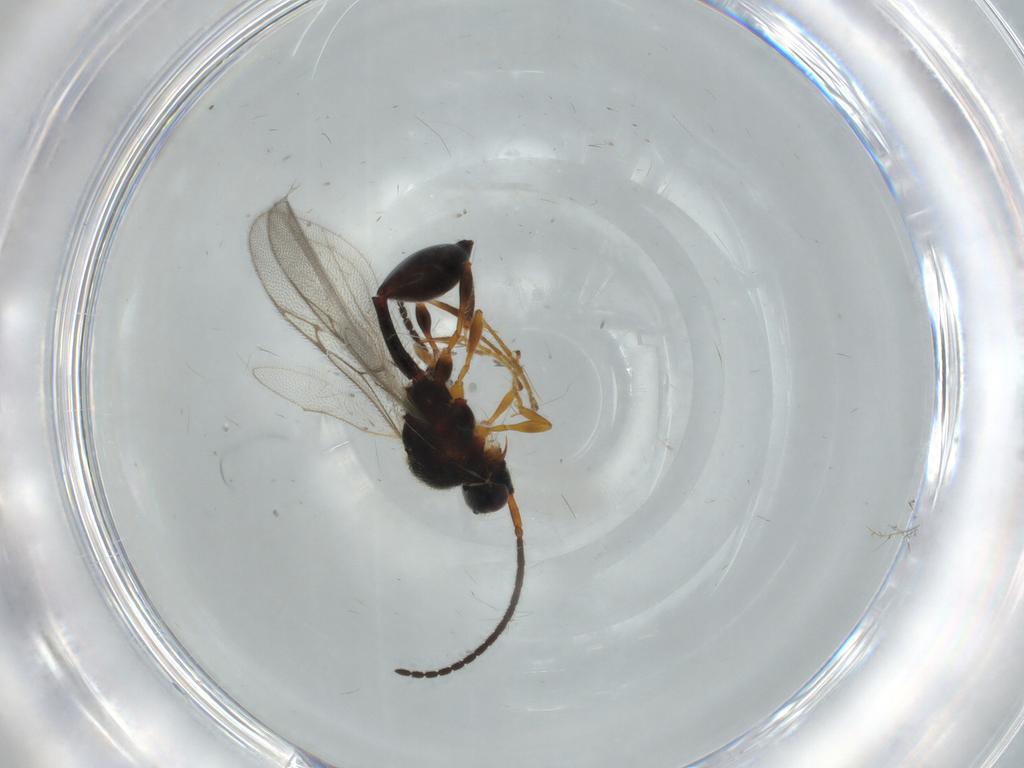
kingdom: Animalia
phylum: Arthropoda
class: Insecta
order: Hymenoptera
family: Diapriidae
